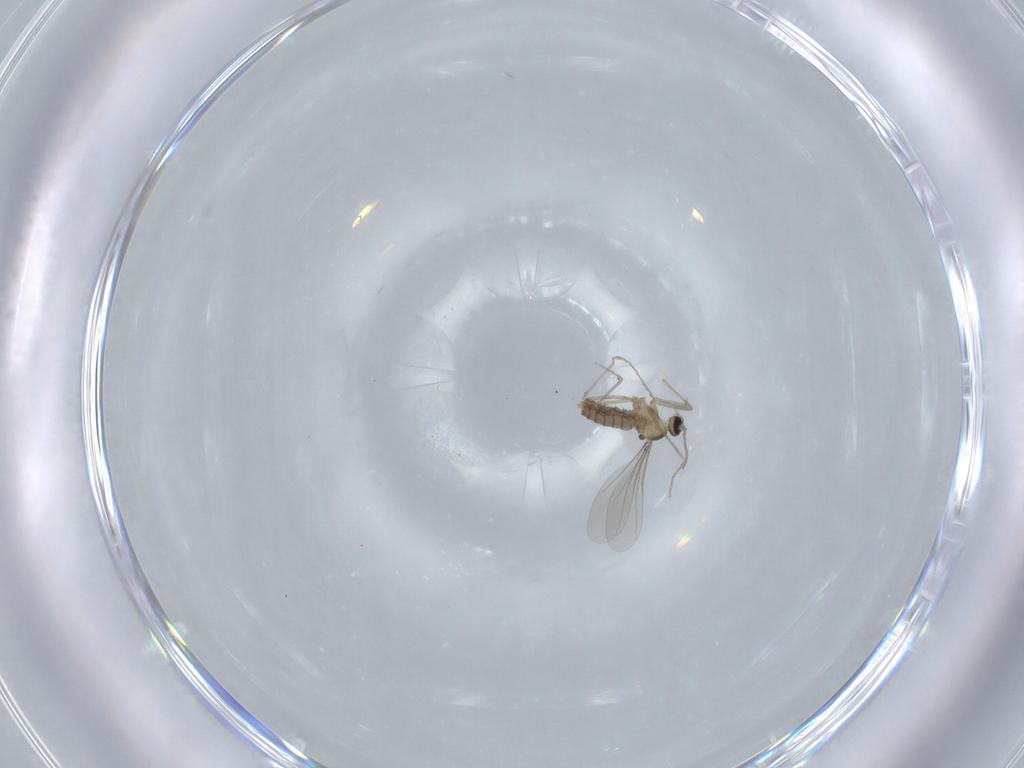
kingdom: Animalia
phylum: Arthropoda
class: Insecta
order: Diptera
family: Cecidomyiidae
